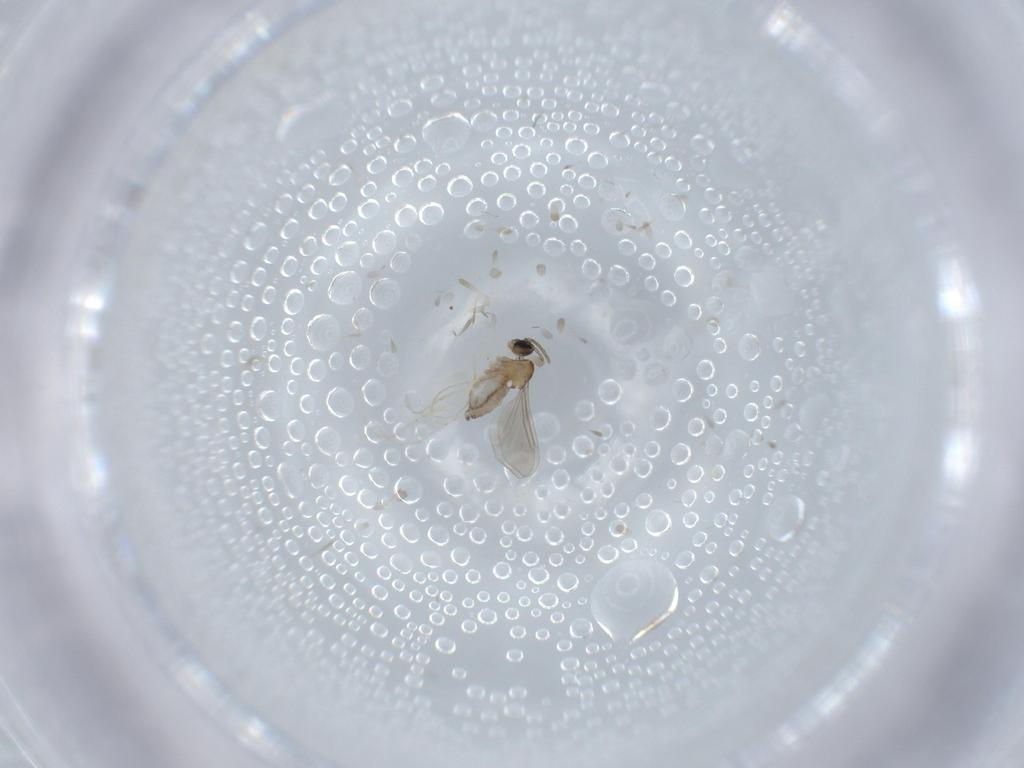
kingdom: Animalia
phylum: Arthropoda
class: Insecta
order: Diptera
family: Cecidomyiidae
